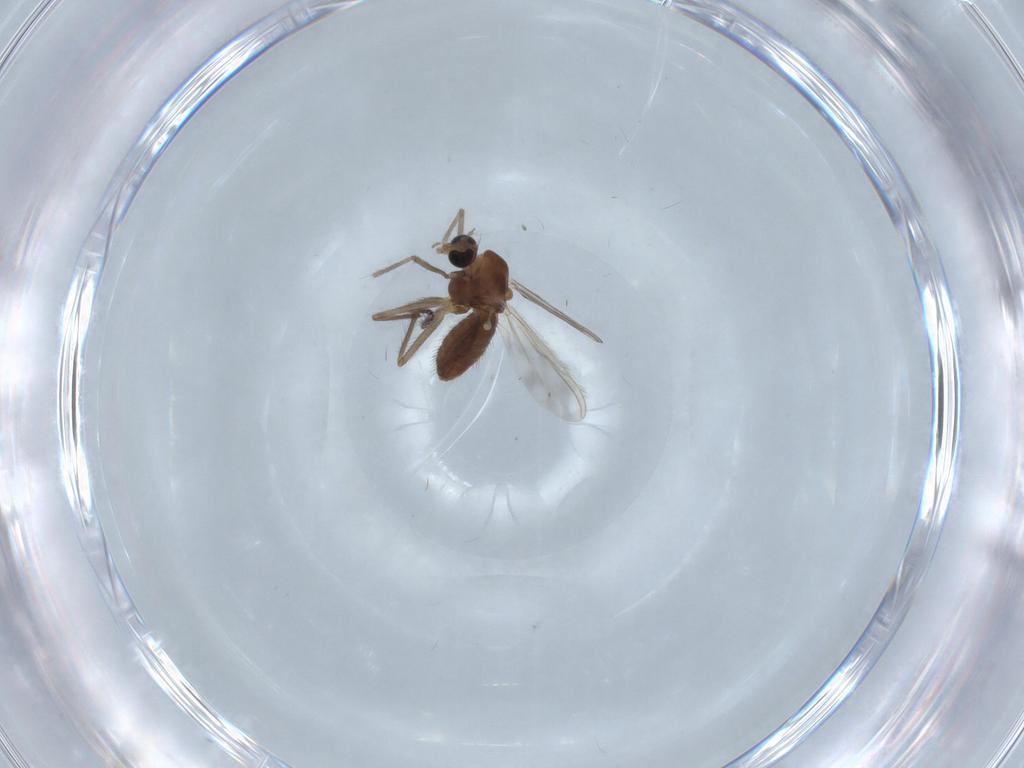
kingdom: Animalia
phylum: Arthropoda
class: Insecta
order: Diptera
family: Chironomidae
